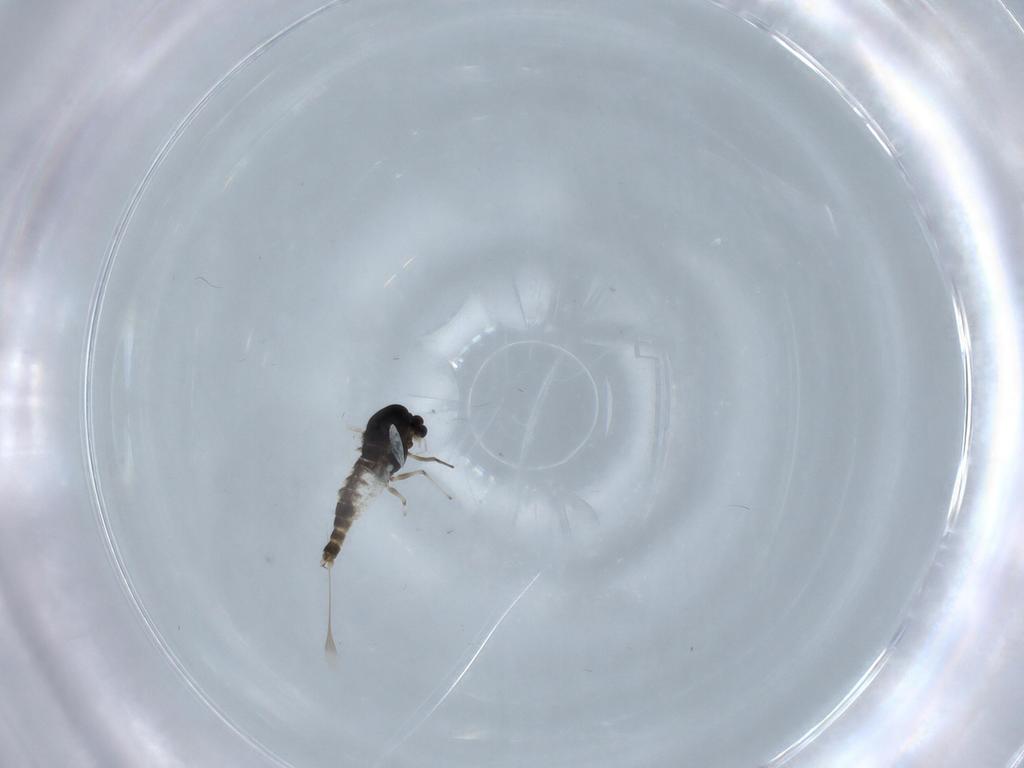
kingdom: Animalia
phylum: Arthropoda
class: Insecta
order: Diptera
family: Chironomidae
